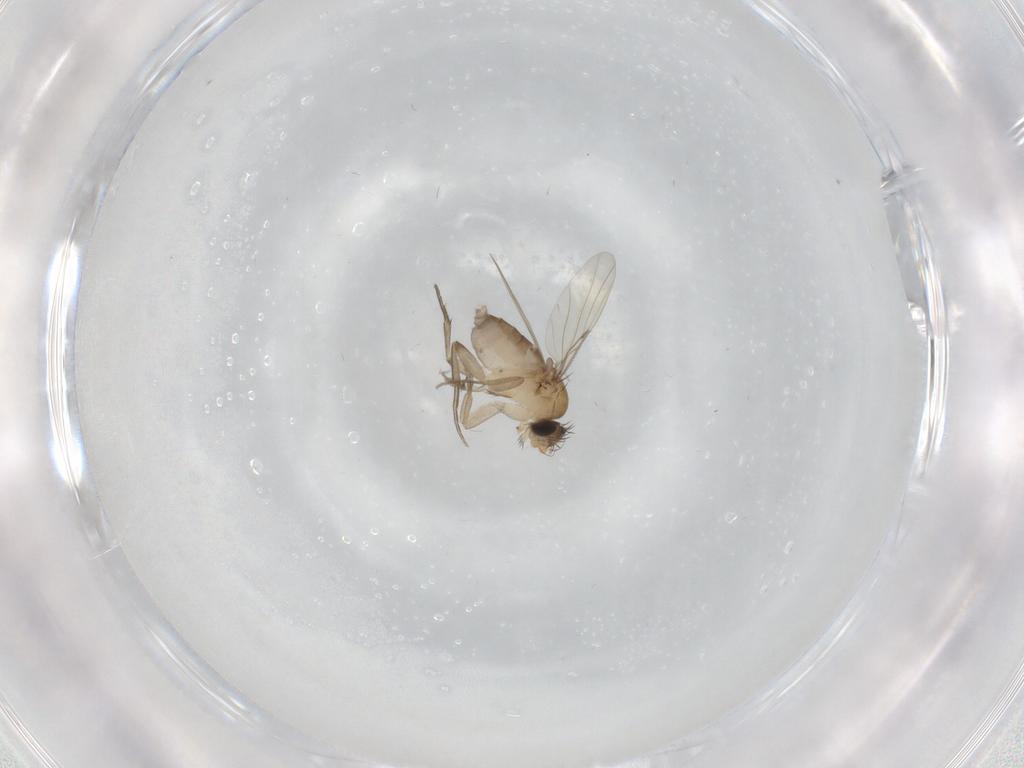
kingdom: Animalia
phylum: Arthropoda
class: Insecta
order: Diptera
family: Phoridae
